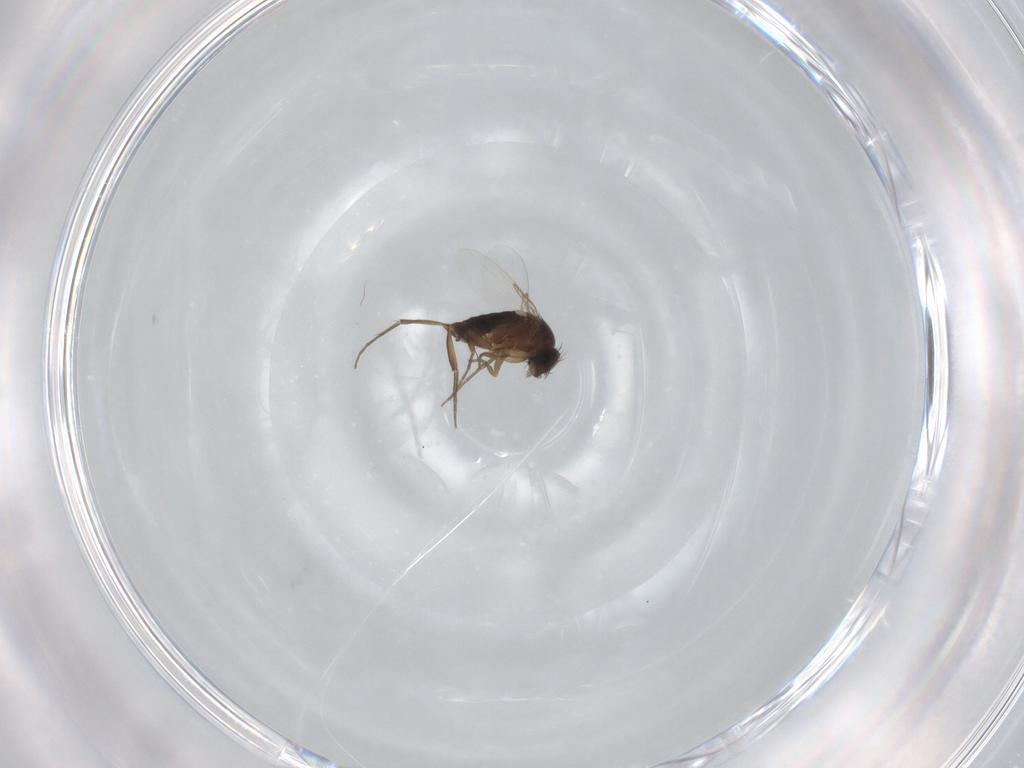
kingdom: Animalia
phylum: Arthropoda
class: Insecta
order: Diptera
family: Phoridae
